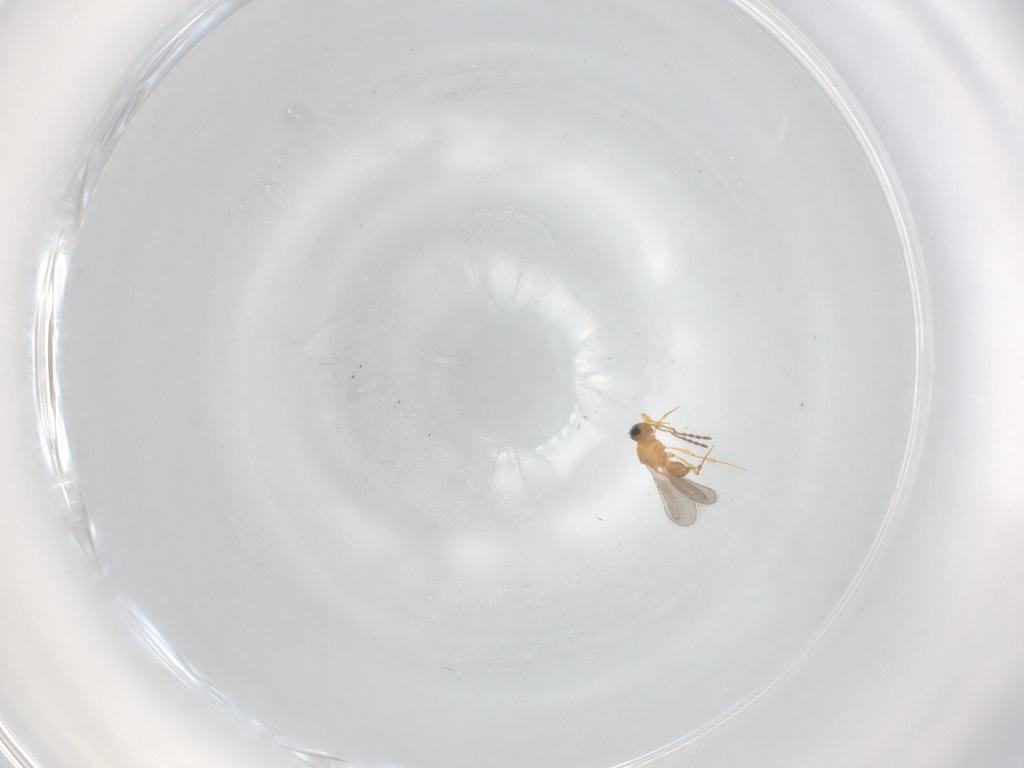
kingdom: Animalia
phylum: Arthropoda
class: Insecta
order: Hymenoptera
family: Platygastridae
